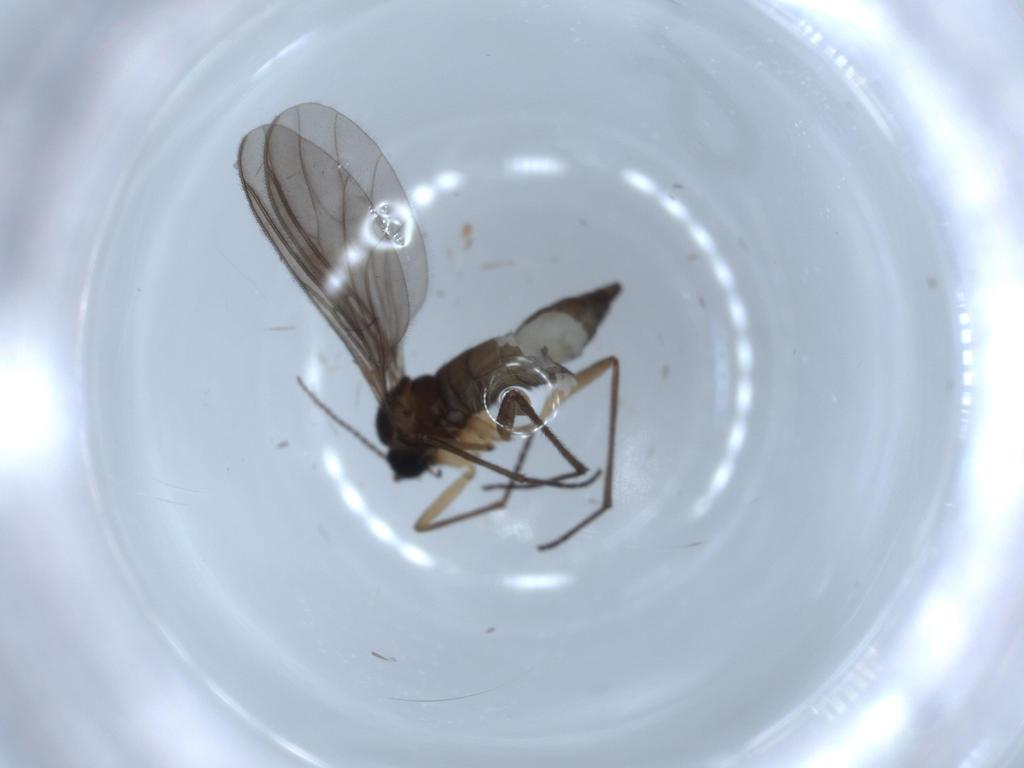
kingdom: Animalia
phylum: Arthropoda
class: Insecta
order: Diptera
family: Sciaridae
